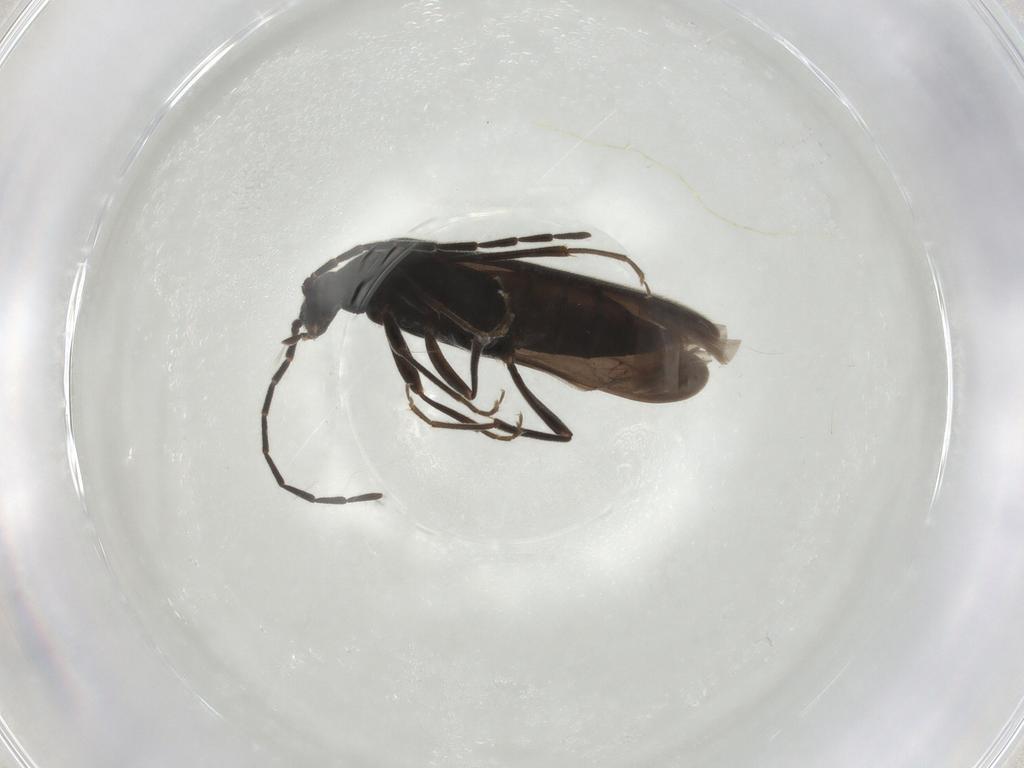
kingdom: Animalia
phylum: Arthropoda
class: Insecta
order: Coleoptera
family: Scraptiidae
